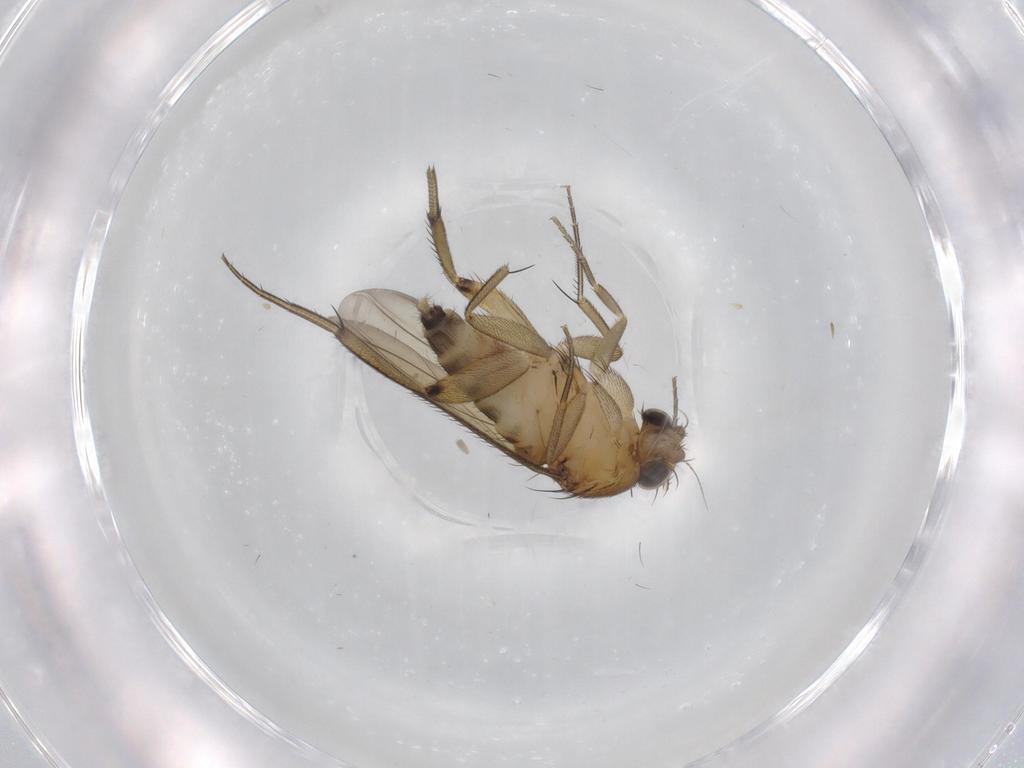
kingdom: Animalia
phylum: Arthropoda
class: Insecta
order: Diptera
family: Phoridae
